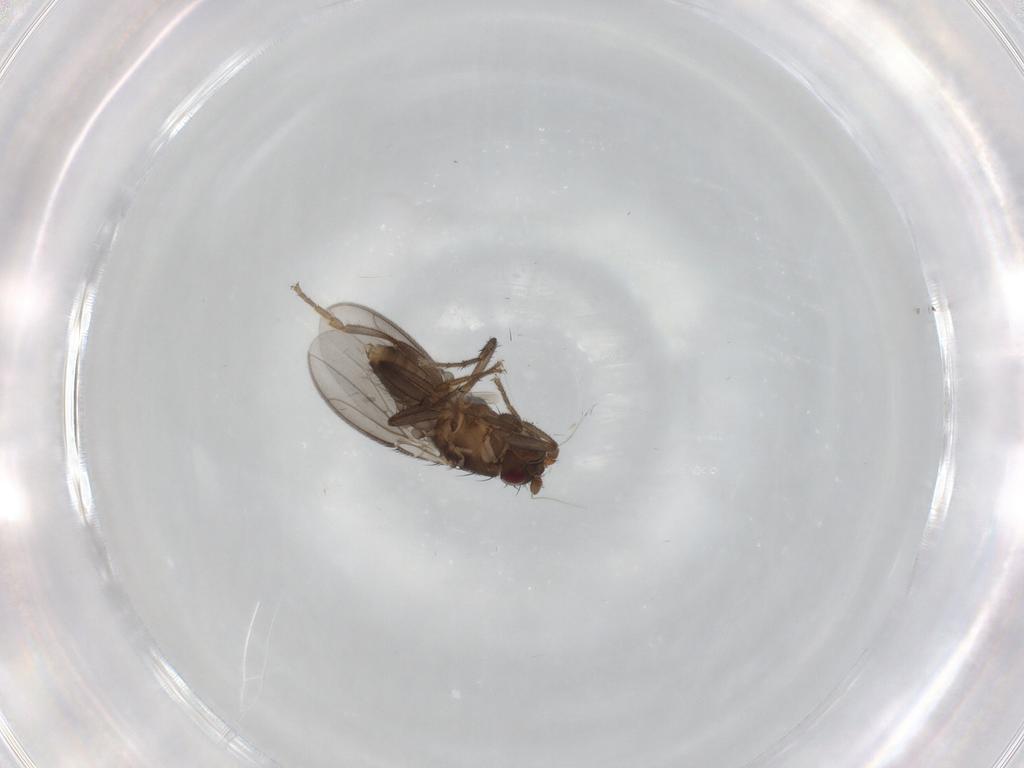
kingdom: Animalia
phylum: Arthropoda
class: Insecta
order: Diptera
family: Sphaeroceridae
